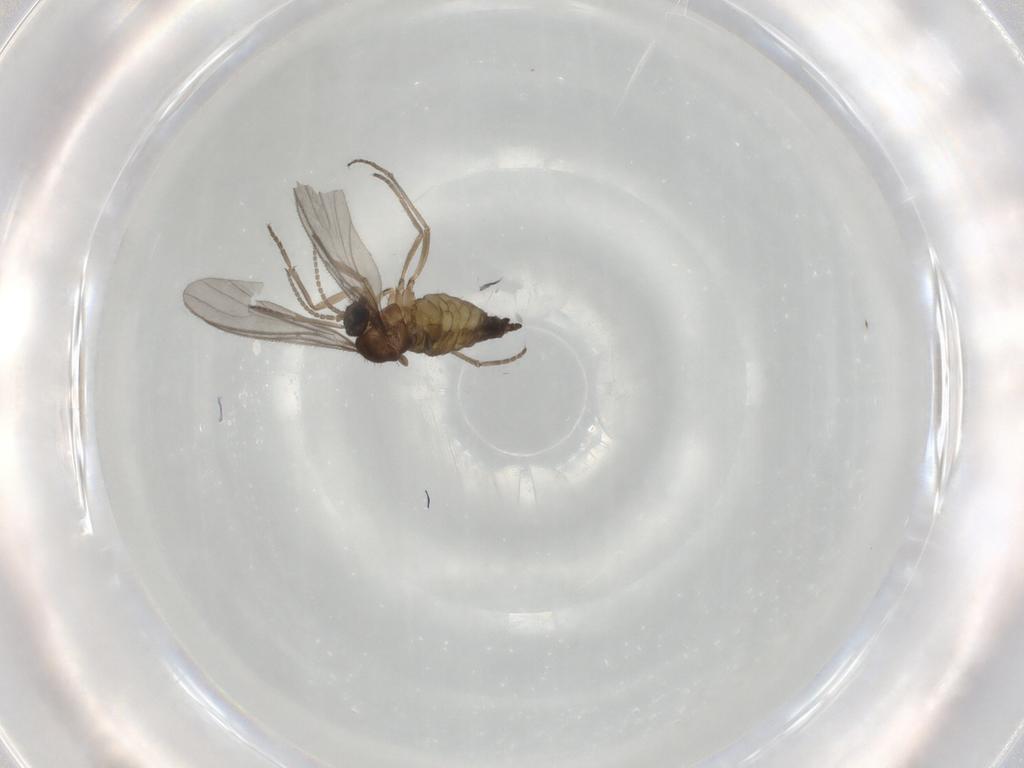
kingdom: Animalia
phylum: Arthropoda
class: Insecta
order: Diptera
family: Sciaridae
